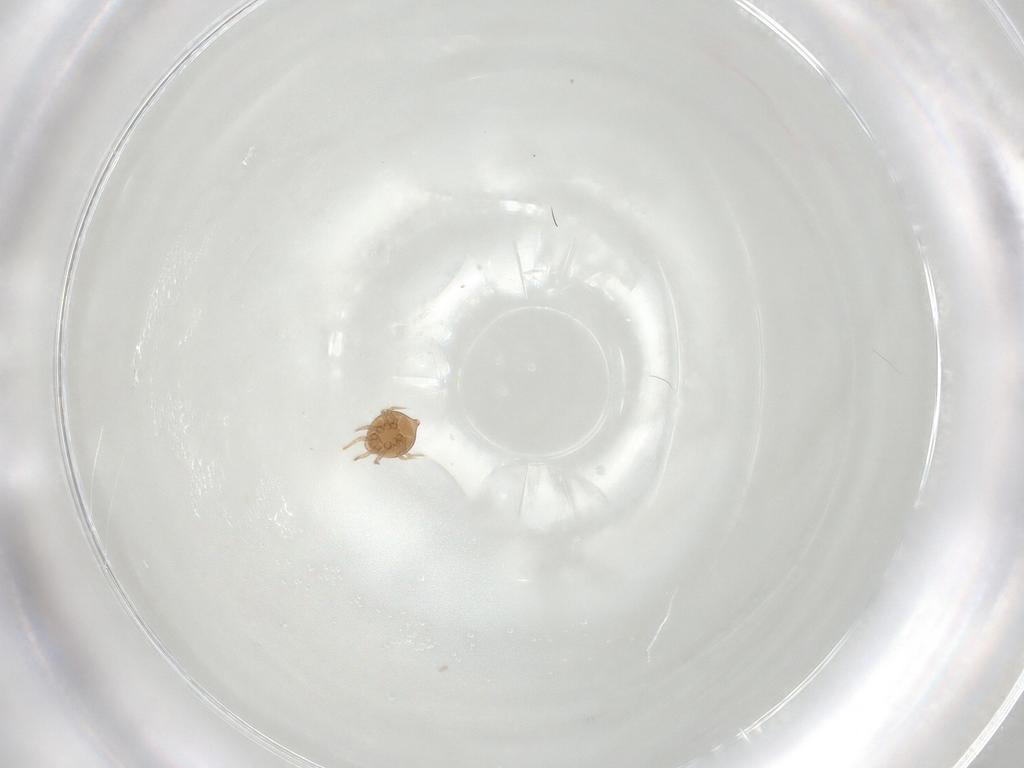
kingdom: Animalia
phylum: Arthropoda
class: Arachnida
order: Mesostigmata
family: Polyaspididae
